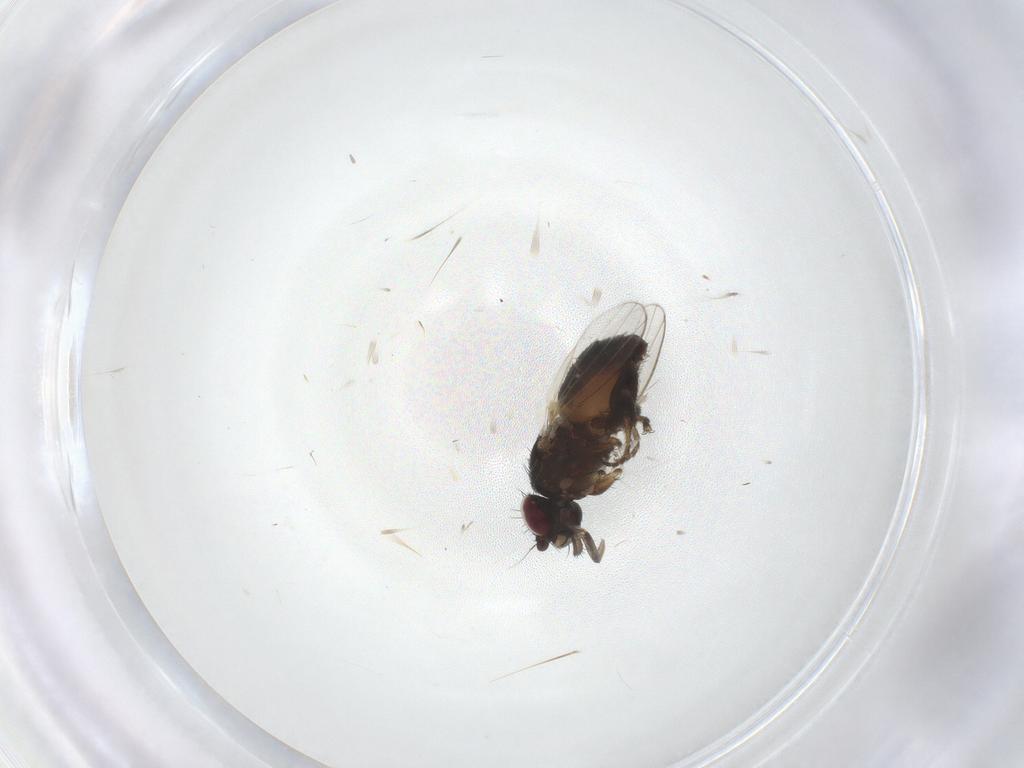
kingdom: Animalia
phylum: Arthropoda
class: Insecta
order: Diptera
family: Milichiidae
